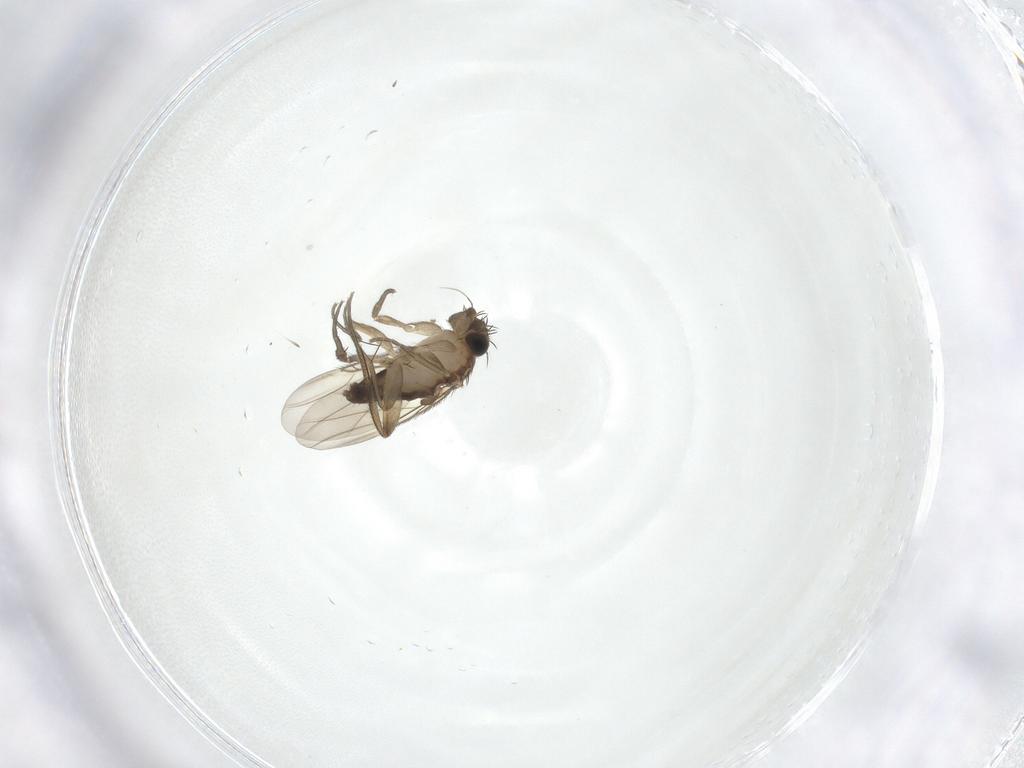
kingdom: Animalia
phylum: Arthropoda
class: Insecta
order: Diptera
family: Phoridae
